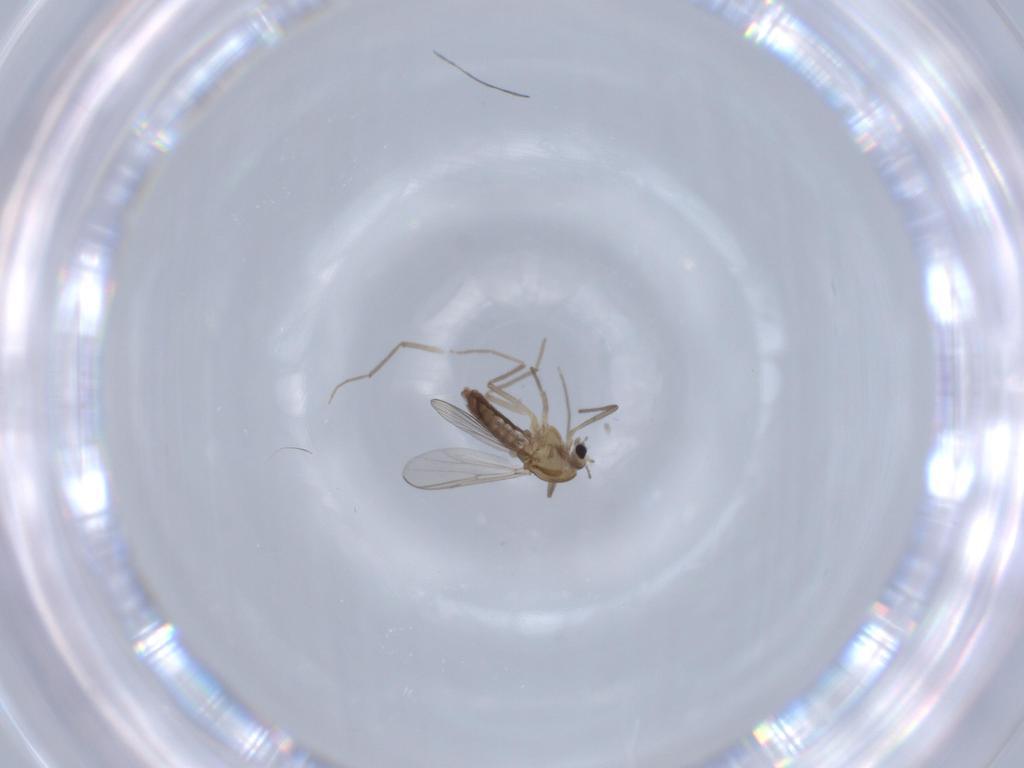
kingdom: Animalia
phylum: Arthropoda
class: Insecta
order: Diptera
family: Chironomidae
